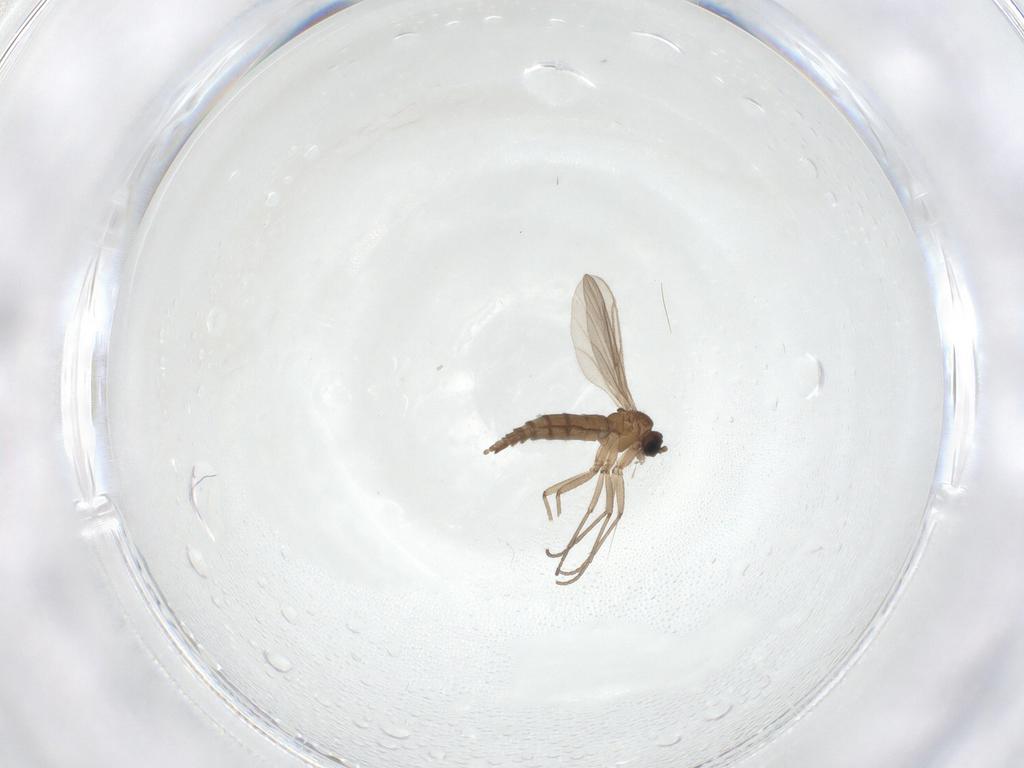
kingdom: Animalia
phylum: Arthropoda
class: Insecta
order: Diptera
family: Sciaridae
